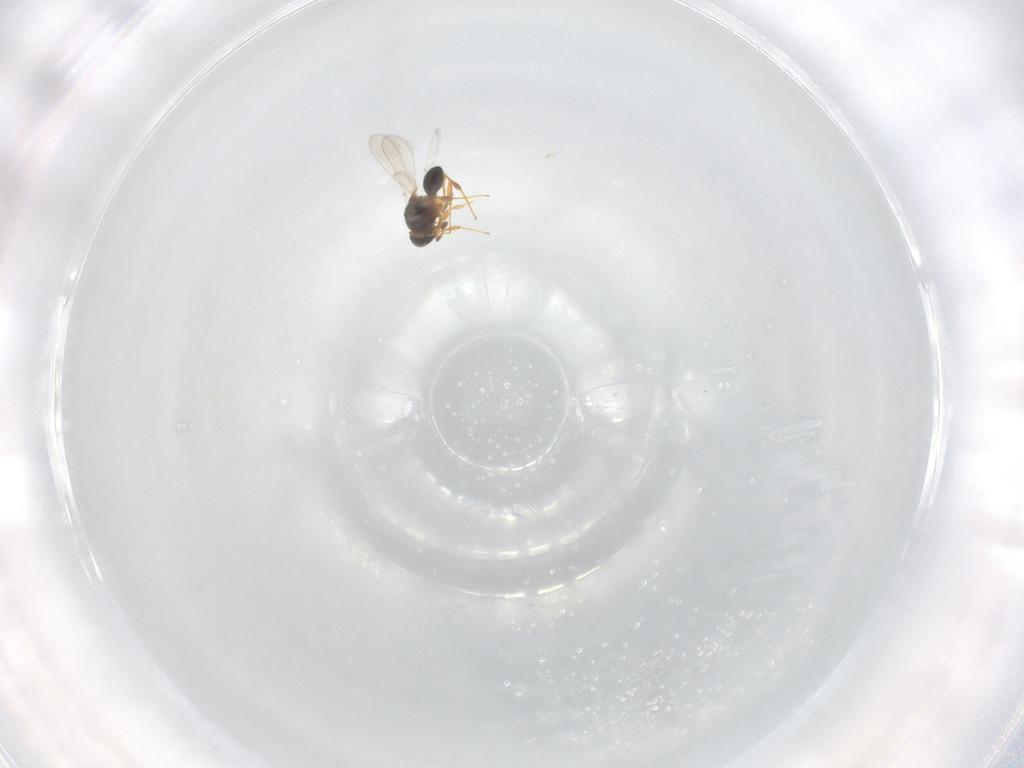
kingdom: Animalia
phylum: Arthropoda
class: Insecta
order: Hymenoptera
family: Platygastridae
